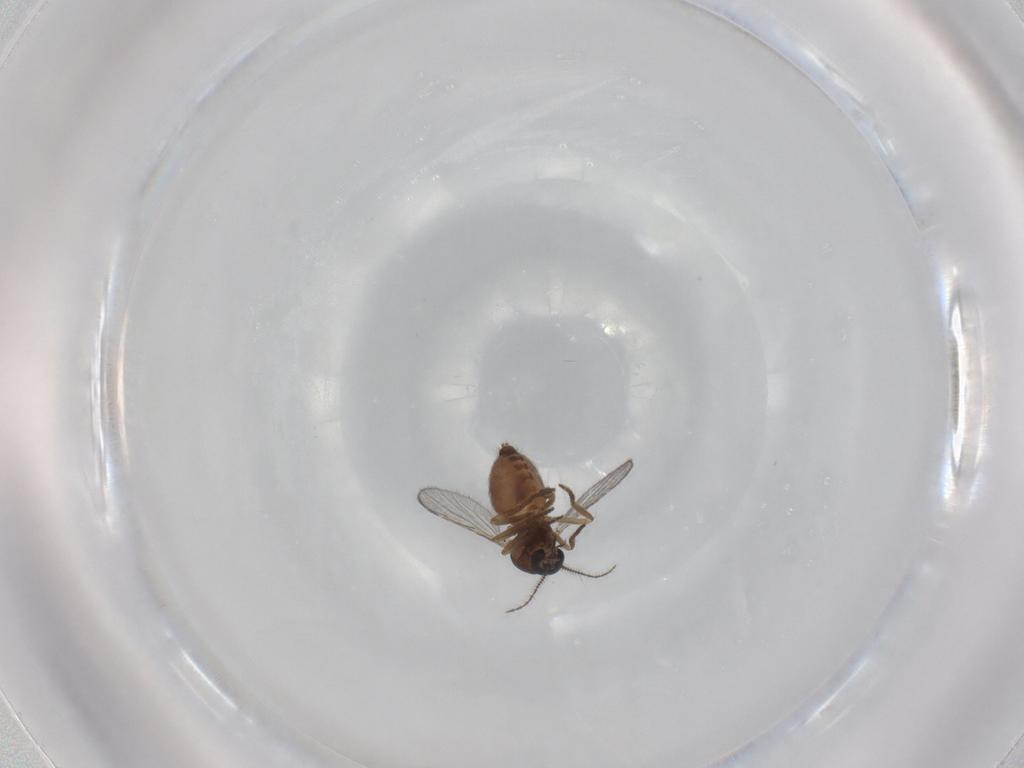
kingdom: Animalia
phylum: Arthropoda
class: Insecta
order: Diptera
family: Ceratopogonidae
